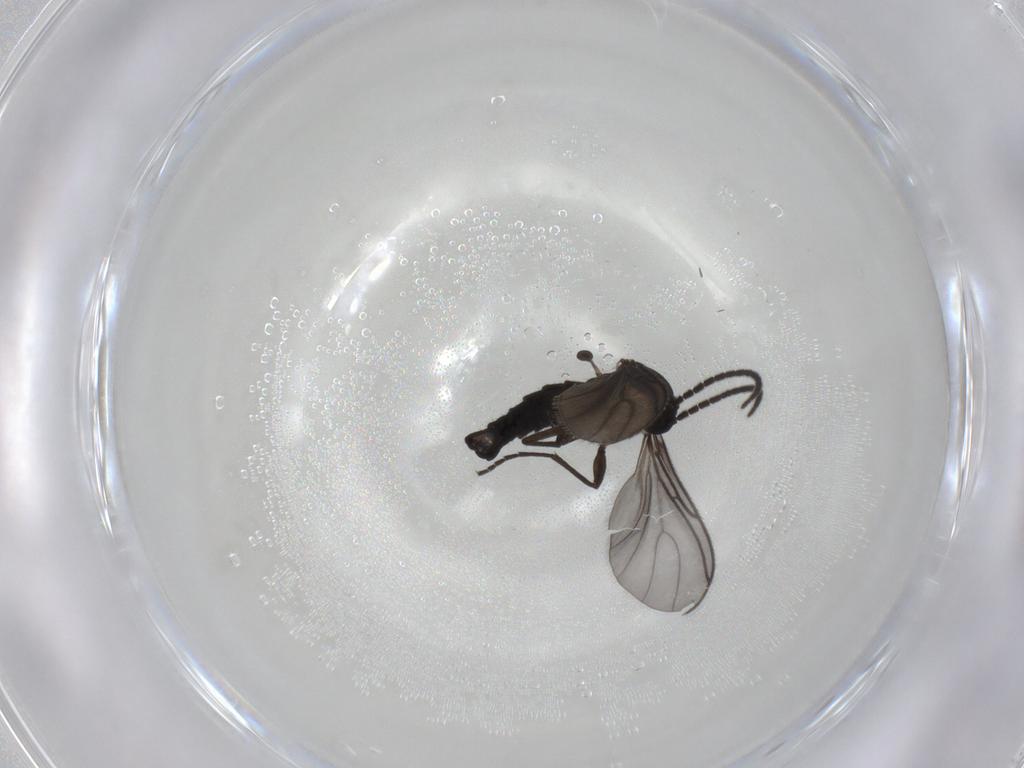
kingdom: Animalia
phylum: Arthropoda
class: Insecta
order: Diptera
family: Sciaridae
